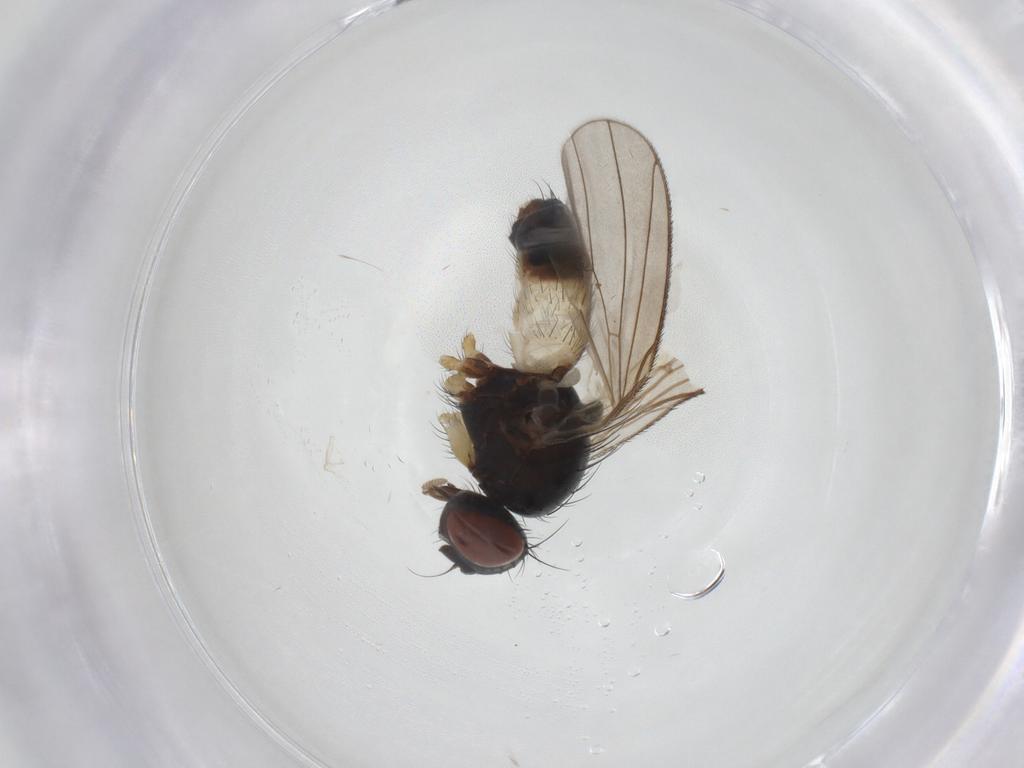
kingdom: Animalia
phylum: Arthropoda
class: Insecta
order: Diptera
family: Muscidae
